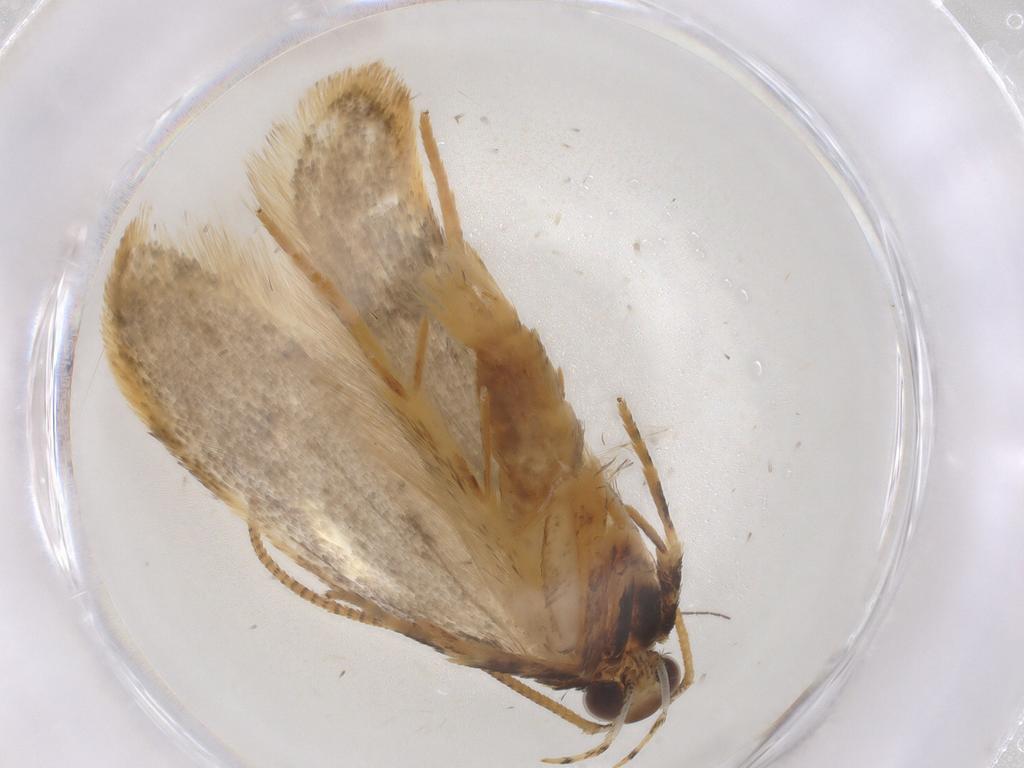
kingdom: Animalia
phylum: Arthropoda
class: Insecta
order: Lepidoptera
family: Gelechiidae
